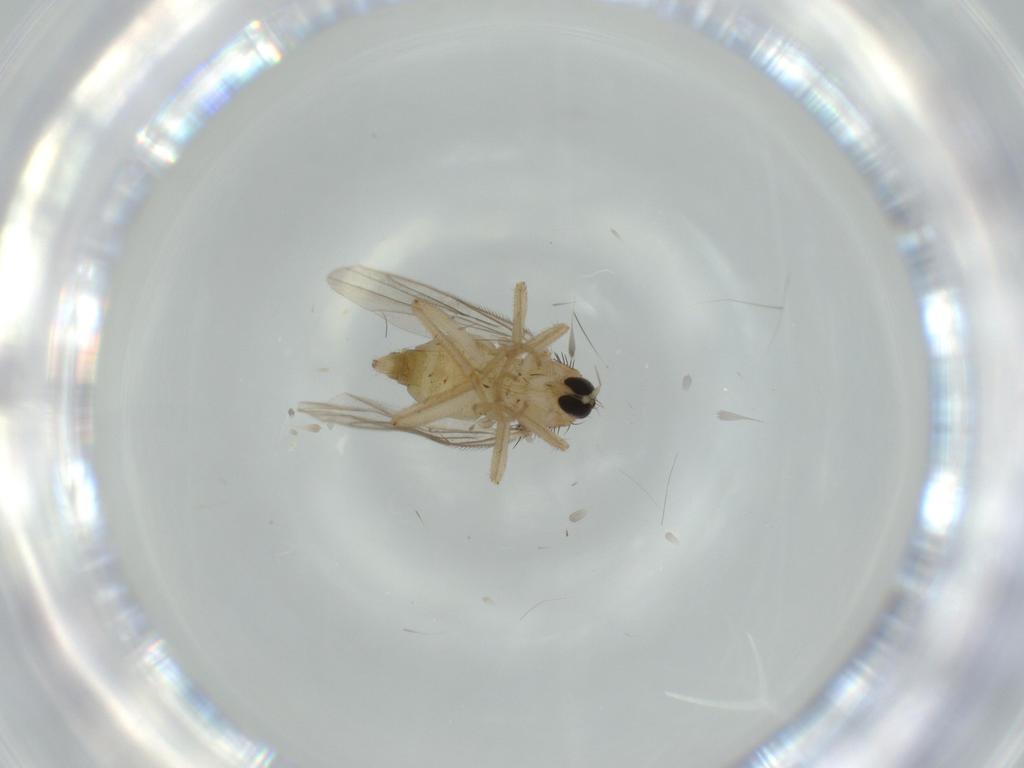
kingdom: Animalia
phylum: Arthropoda
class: Insecta
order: Diptera
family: Hybotidae
